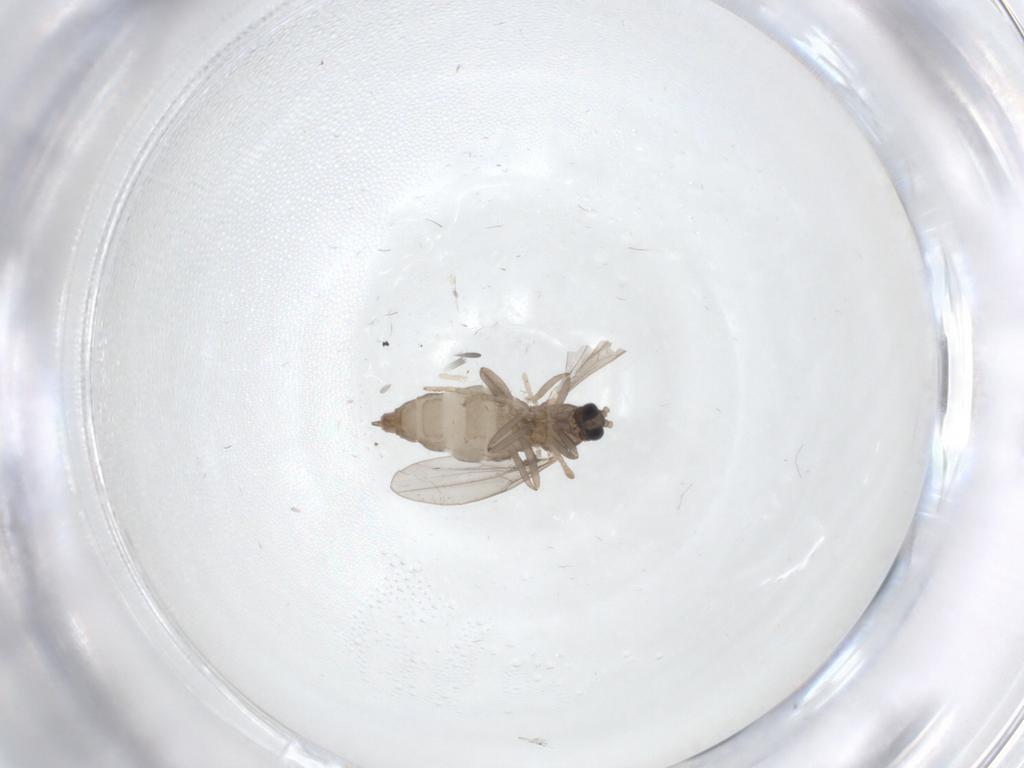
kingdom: Animalia
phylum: Arthropoda
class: Insecta
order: Diptera
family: Cecidomyiidae
